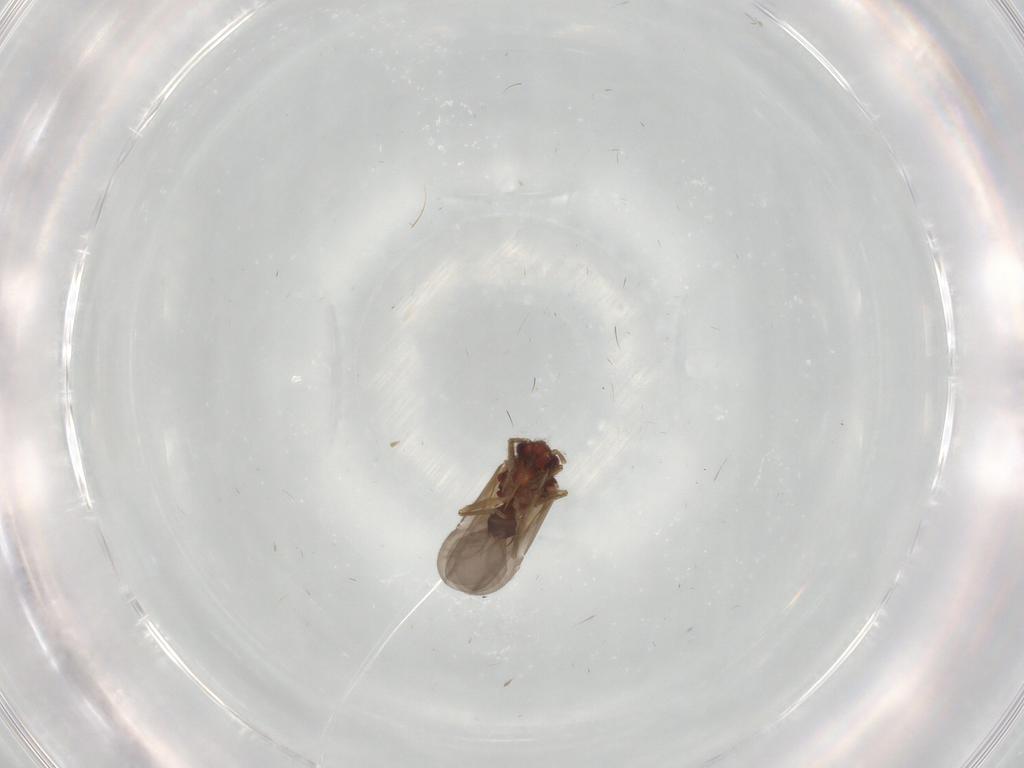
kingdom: Animalia
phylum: Arthropoda
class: Insecta
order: Hemiptera
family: Ceratocombidae
